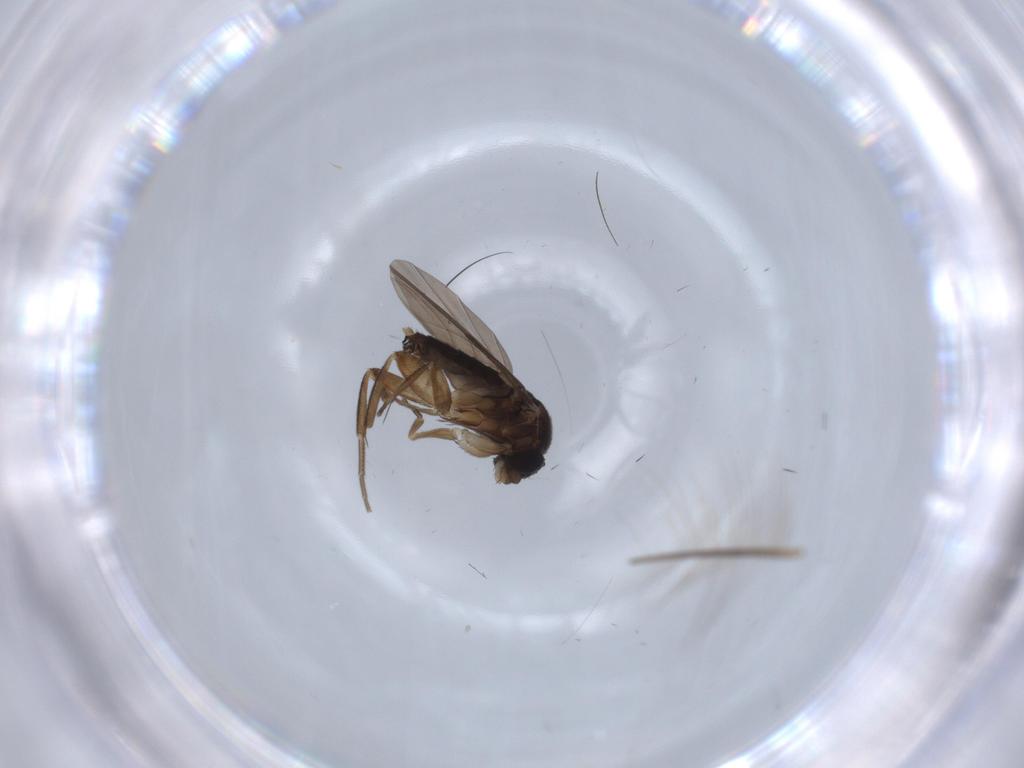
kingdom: Animalia
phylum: Arthropoda
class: Insecta
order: Diptera
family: Phoridae
